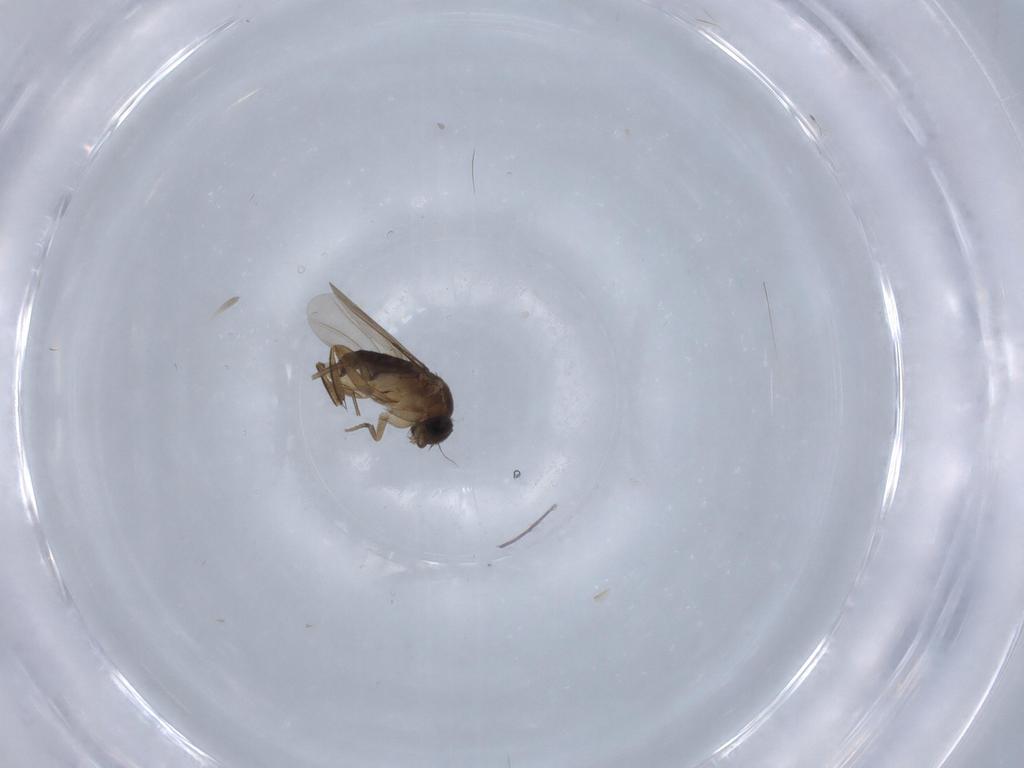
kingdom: Animalia
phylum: Arthropoda
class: Insecta
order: Diptera
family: Phoridae
